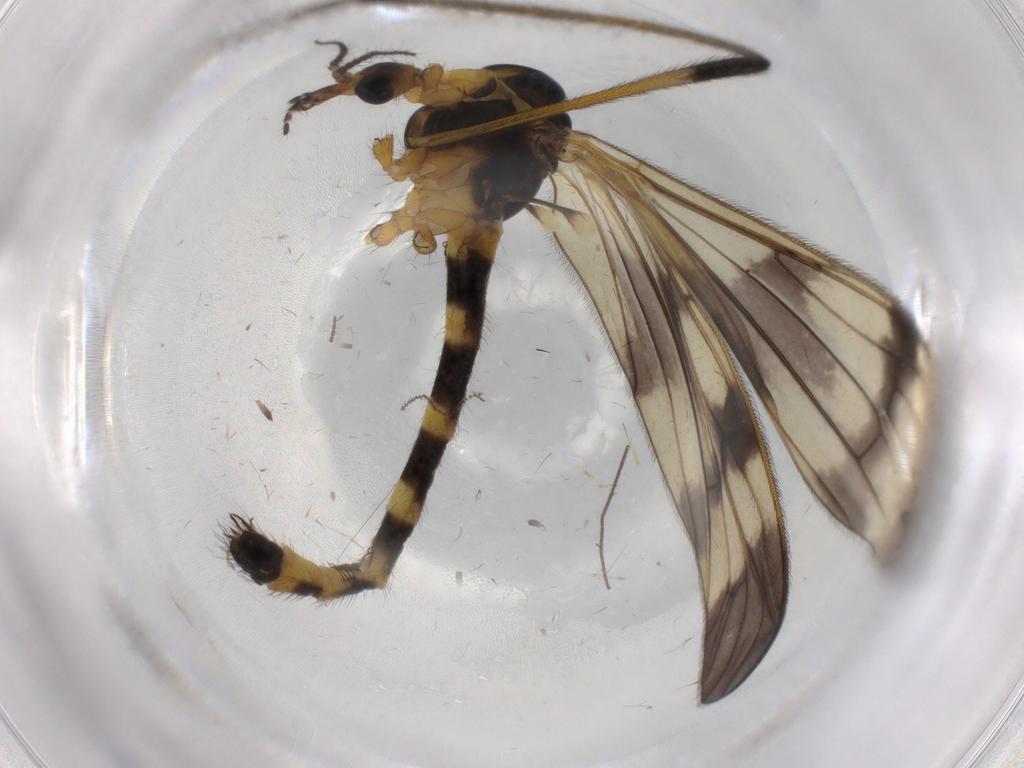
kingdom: Animalia
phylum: Arthropoda
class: Insecta
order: Diptera
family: Limoniidae
